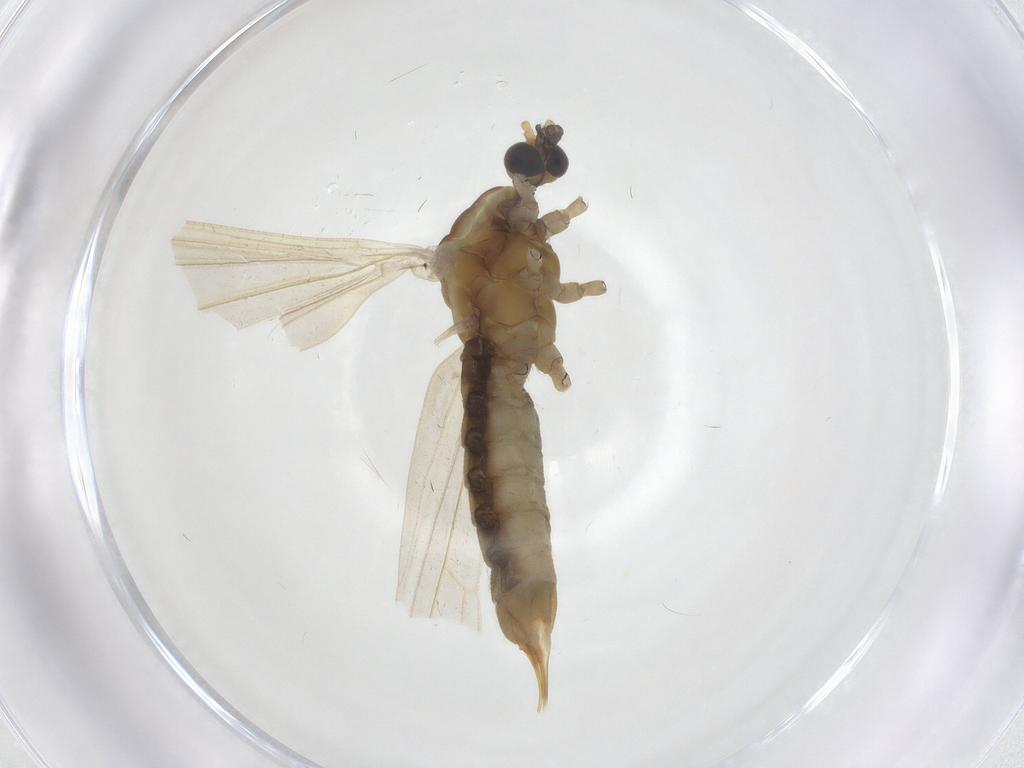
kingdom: Animalia
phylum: Arthropoda
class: Insecta
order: Diptera
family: Chironomidae
